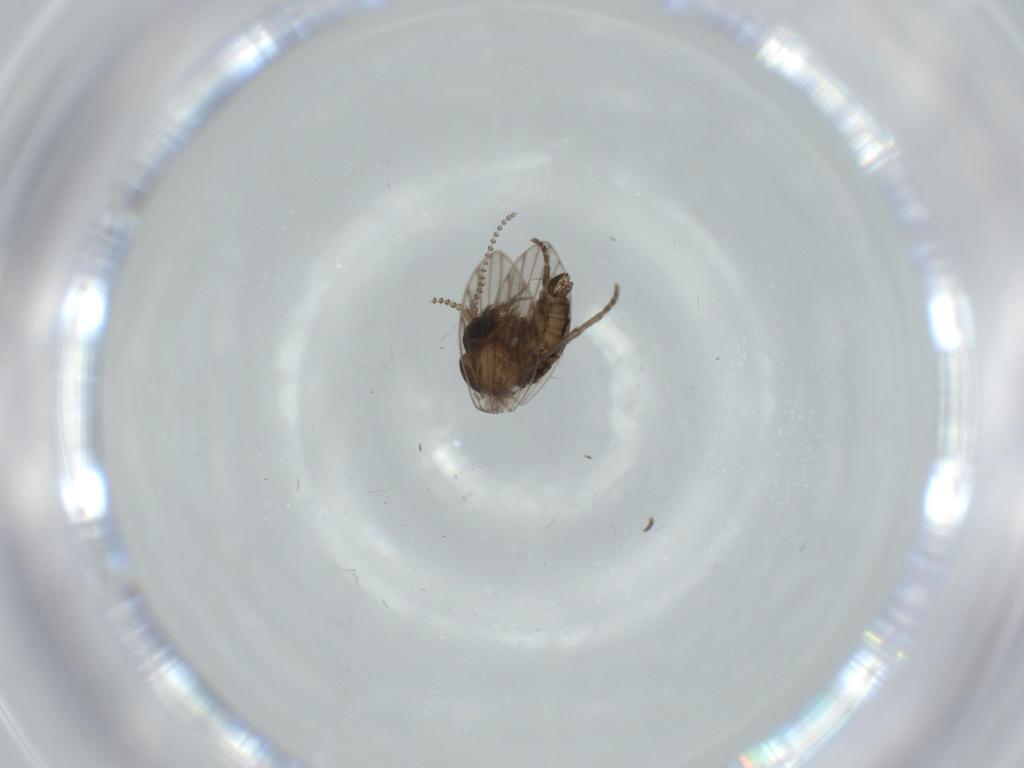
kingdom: Animalia
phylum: Arthropoda
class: Insecta
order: Diptera
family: Psychodidae
